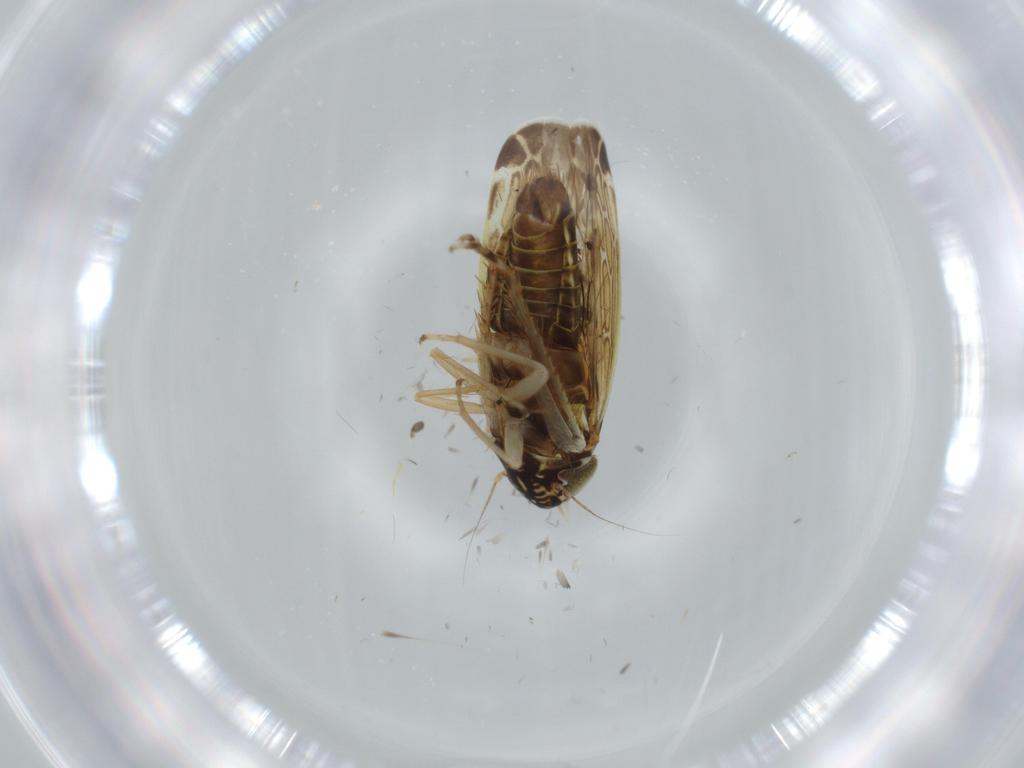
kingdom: Animalia
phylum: Arthropoda
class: Insecta
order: Hemiptera
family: Cicadellidae
